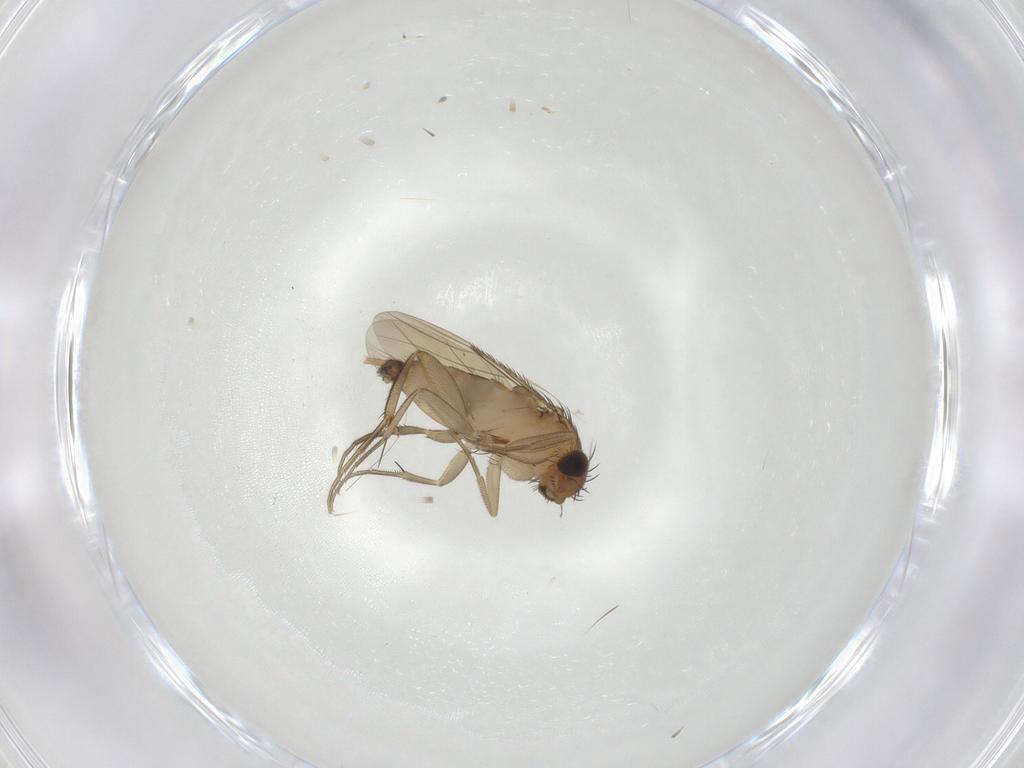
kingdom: Animalia
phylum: Arthropoda
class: Insecta
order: Diptera
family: Phoridae
